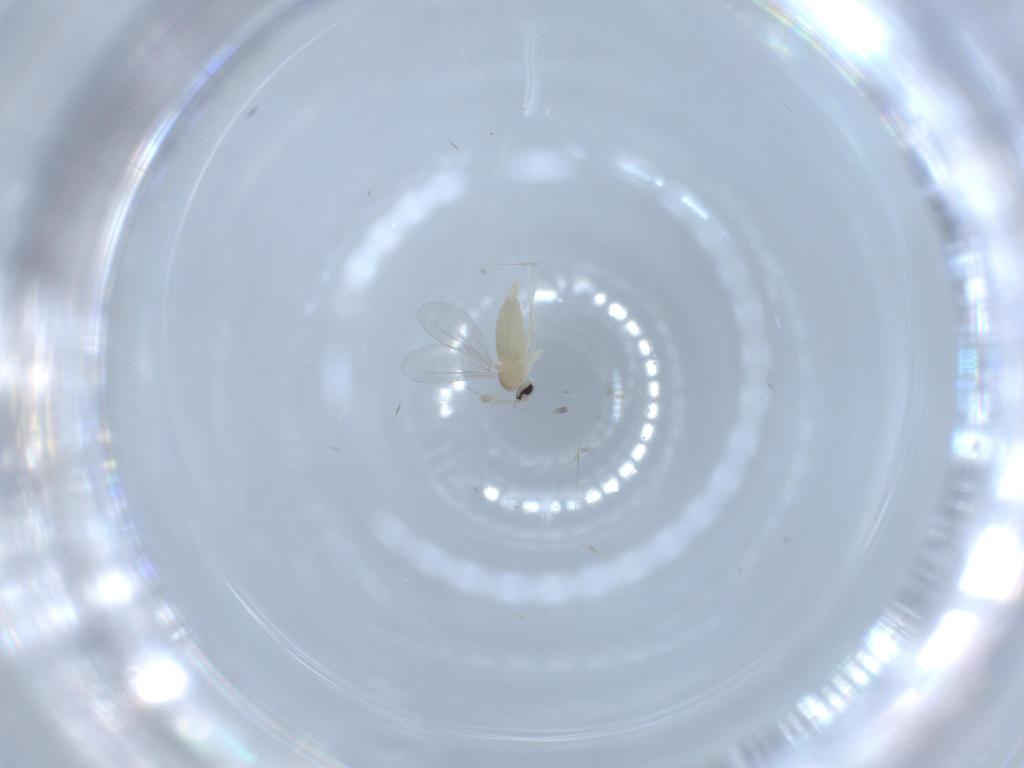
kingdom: Animalia
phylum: Arthropoda
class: Insecta
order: Diptera
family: Cecidomyiidae
